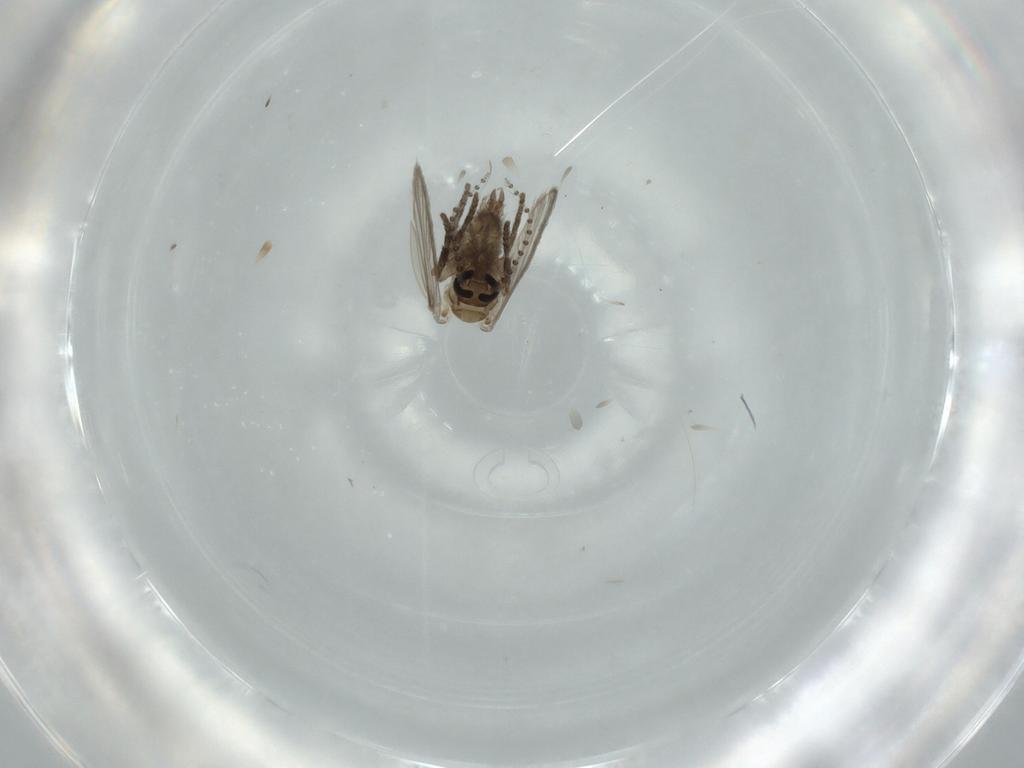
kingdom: Animalia
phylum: Arthropoda
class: Insecta
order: Diptera
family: Psychodidae
